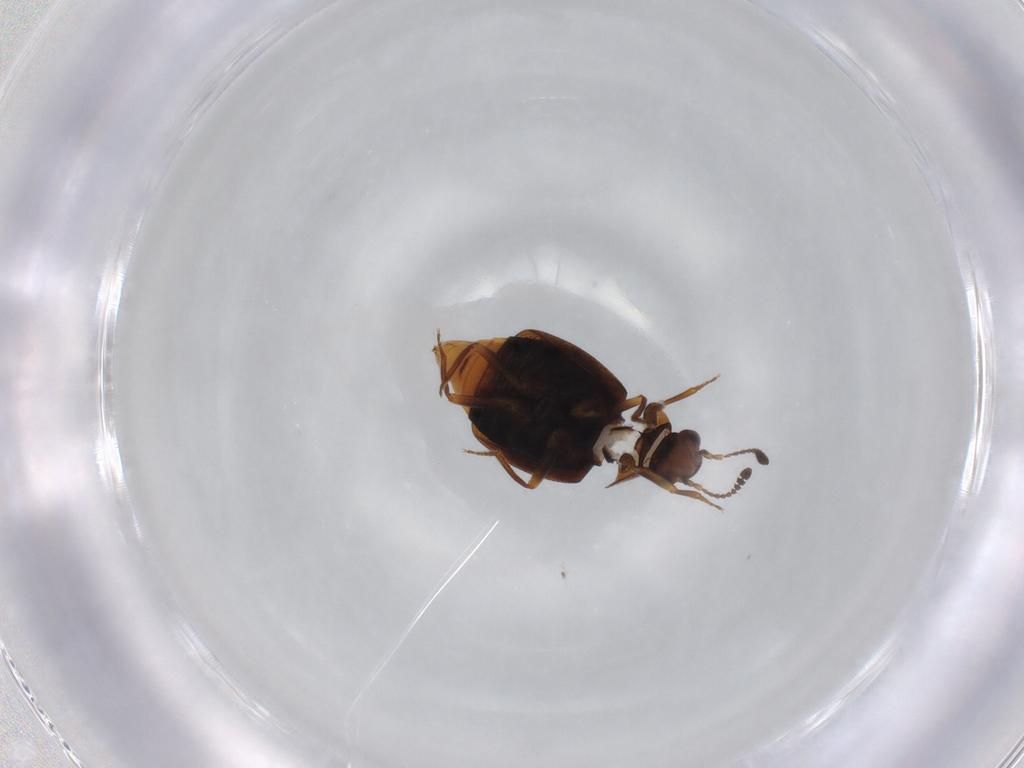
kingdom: Animalia
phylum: Arthropoda
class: Insecta
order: Coleoptera
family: Staphylinidae
